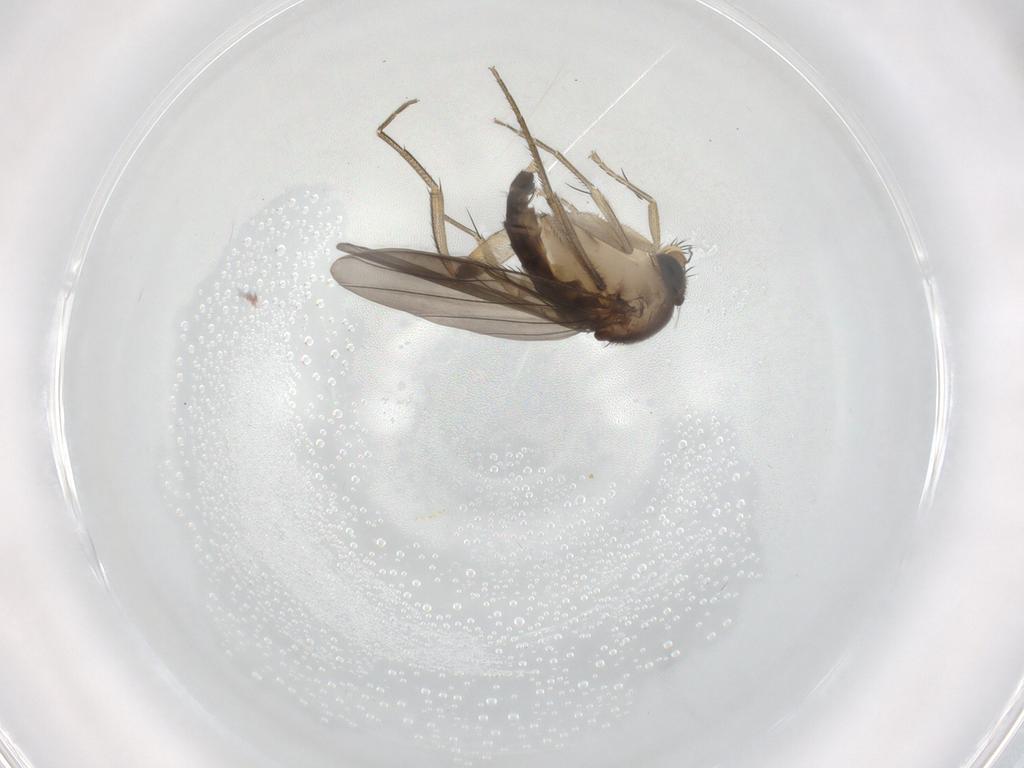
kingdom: Animalia
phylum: Arthropoda
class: Insecta
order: Diptera
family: Phoridae
